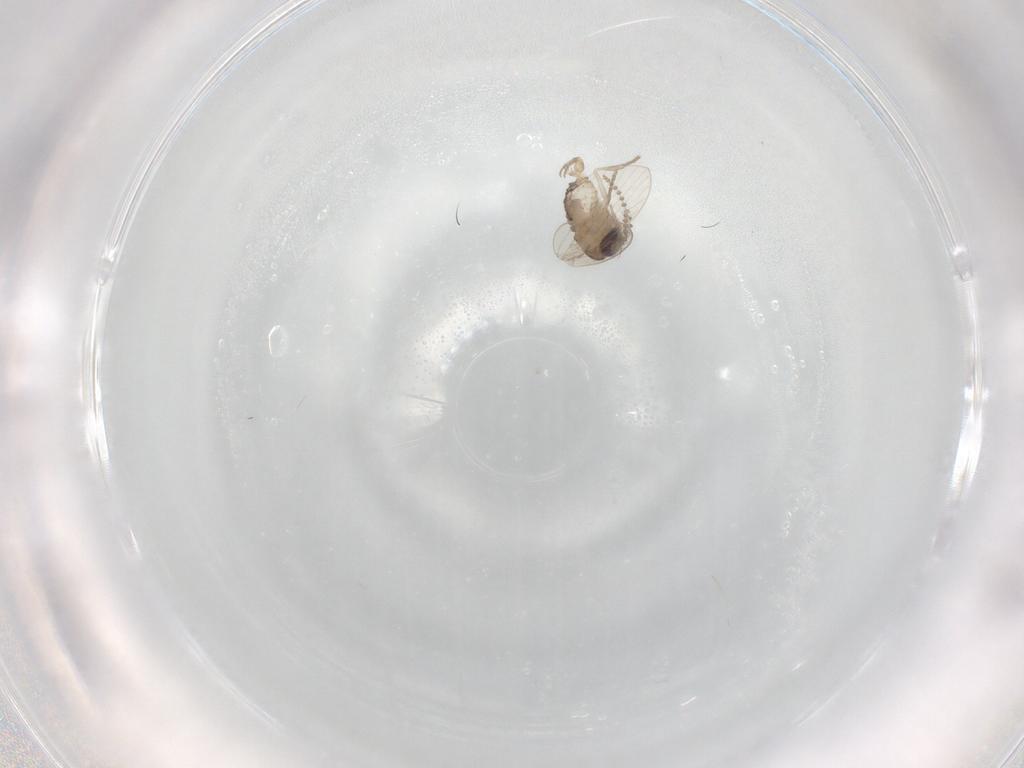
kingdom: Animalia
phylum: Arthropoda
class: Insecta
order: Diptera
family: Psychodidae
